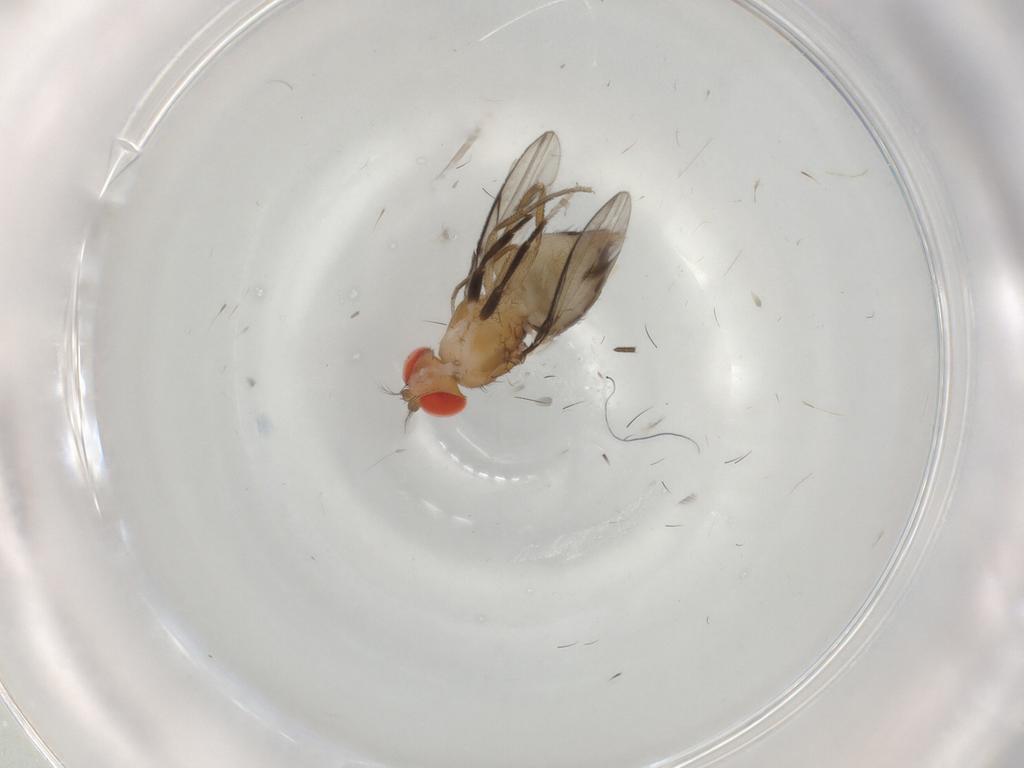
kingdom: Animalia
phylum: Arthropoda
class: Insecta
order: Diptera
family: Drosophilidae
